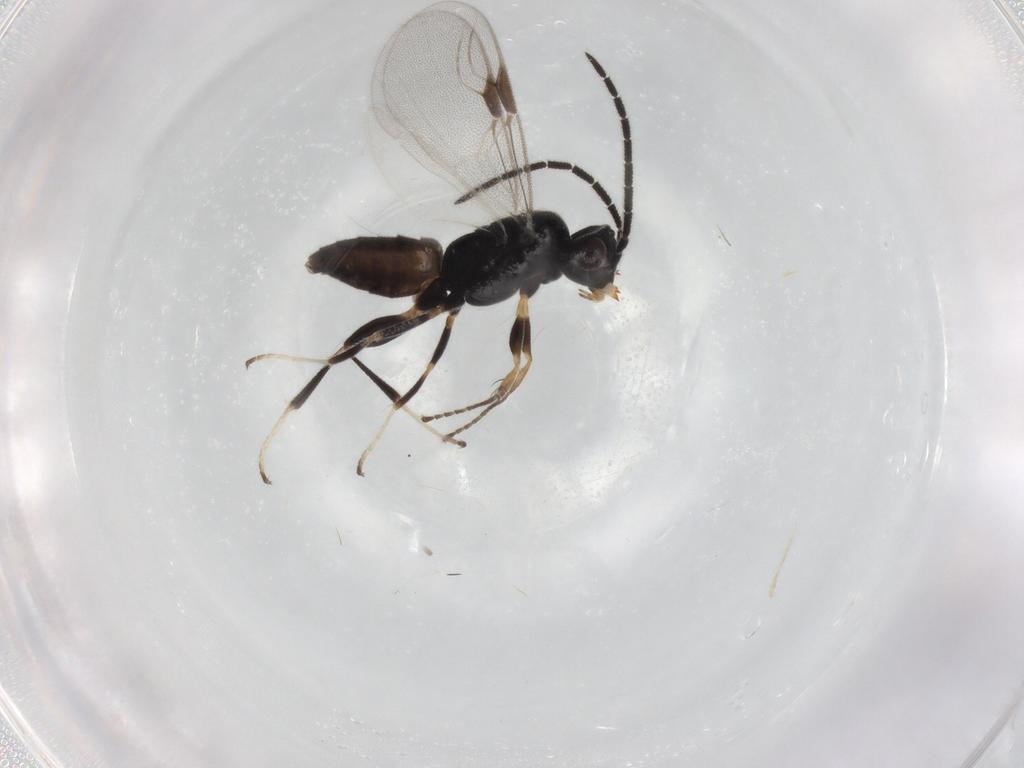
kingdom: Animalia
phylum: Arthropoda
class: Insecta
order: Hymenoptera
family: Dryinidae
